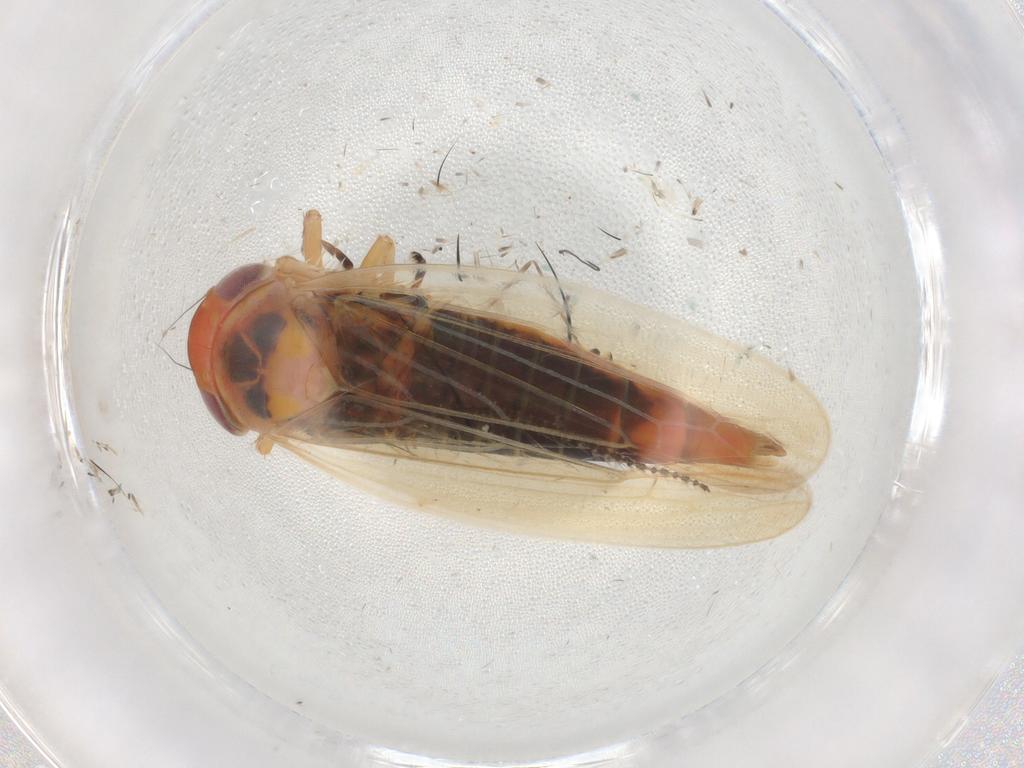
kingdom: Animalia
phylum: Arthropoda
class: Insecta
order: Hemiptera
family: Cicadellidae
